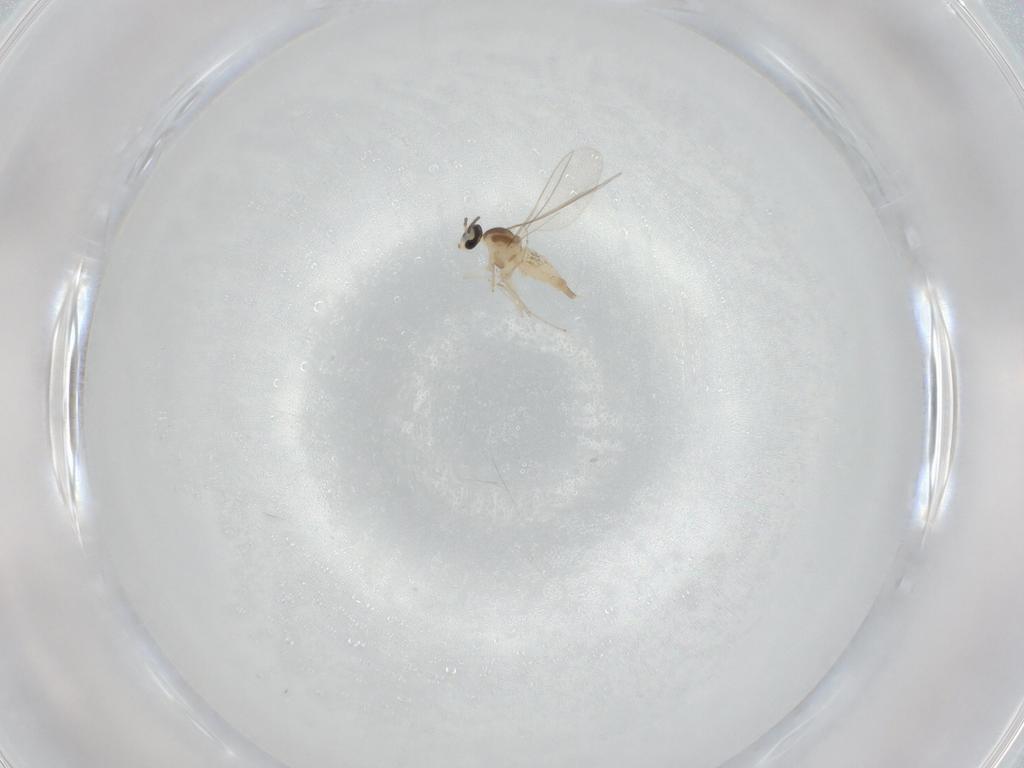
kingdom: Animalia
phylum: Arthropoda
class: Insecta
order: Diptera
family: Cecidomyiidae
